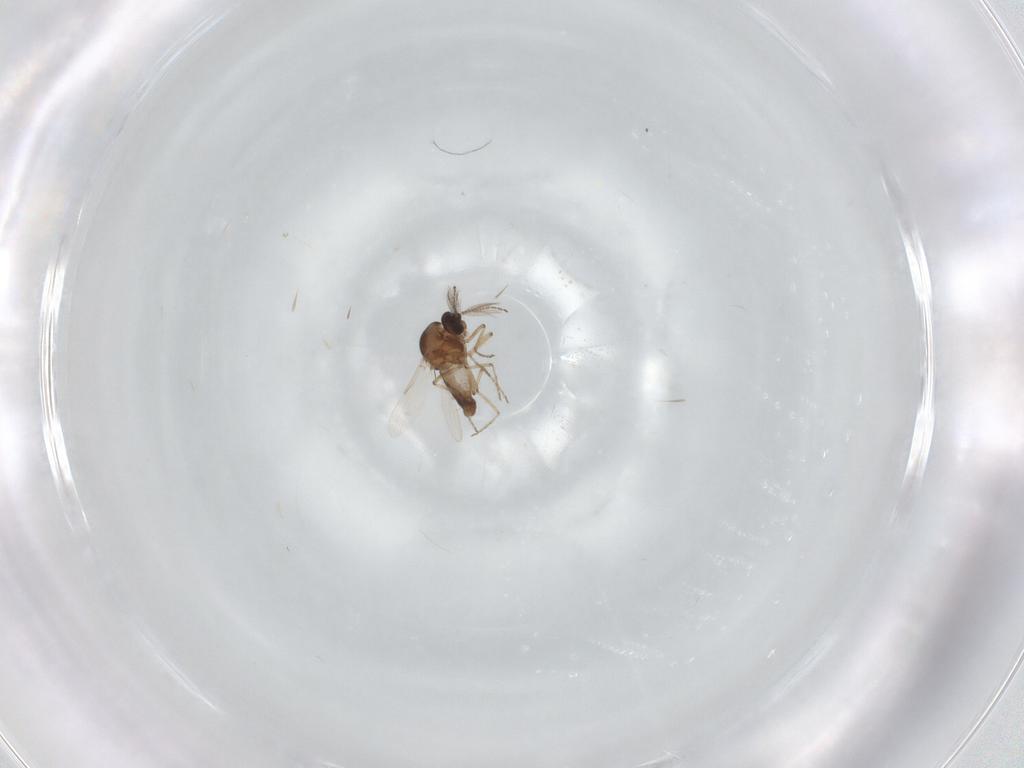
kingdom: Animalia
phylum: Arthropoda
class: Insecta
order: Diptera
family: Ceratopogonidae
